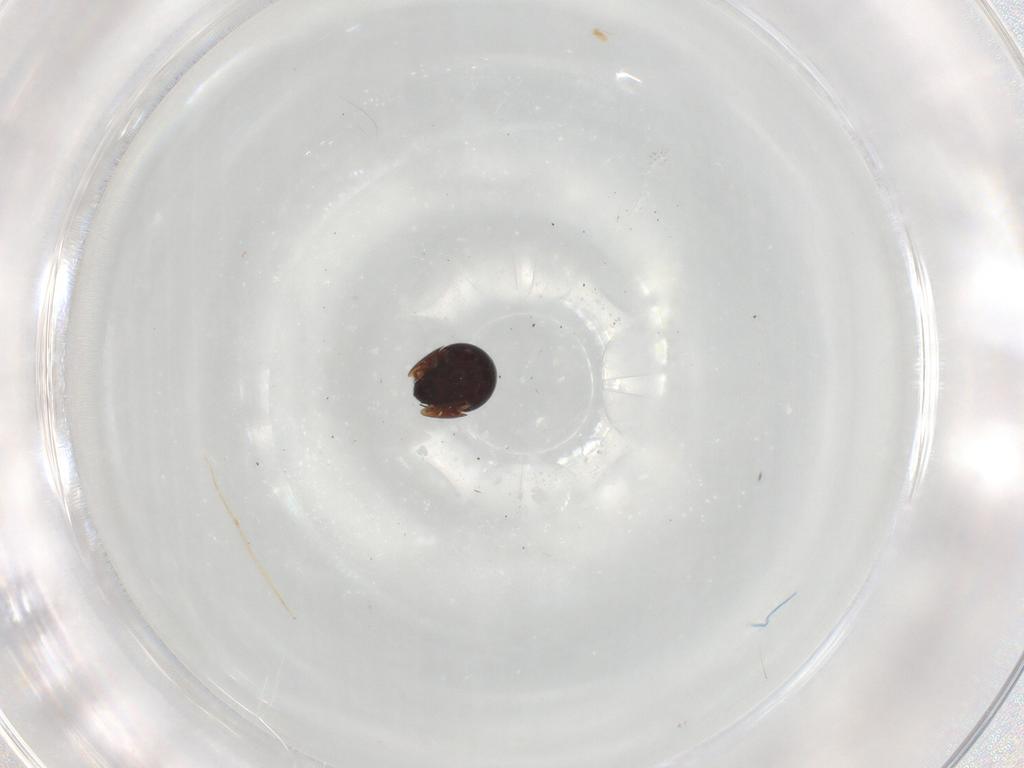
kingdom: Animalia
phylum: Arthropoda
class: Arachnida
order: Sarcoptiformes
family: Ceratozetidae
